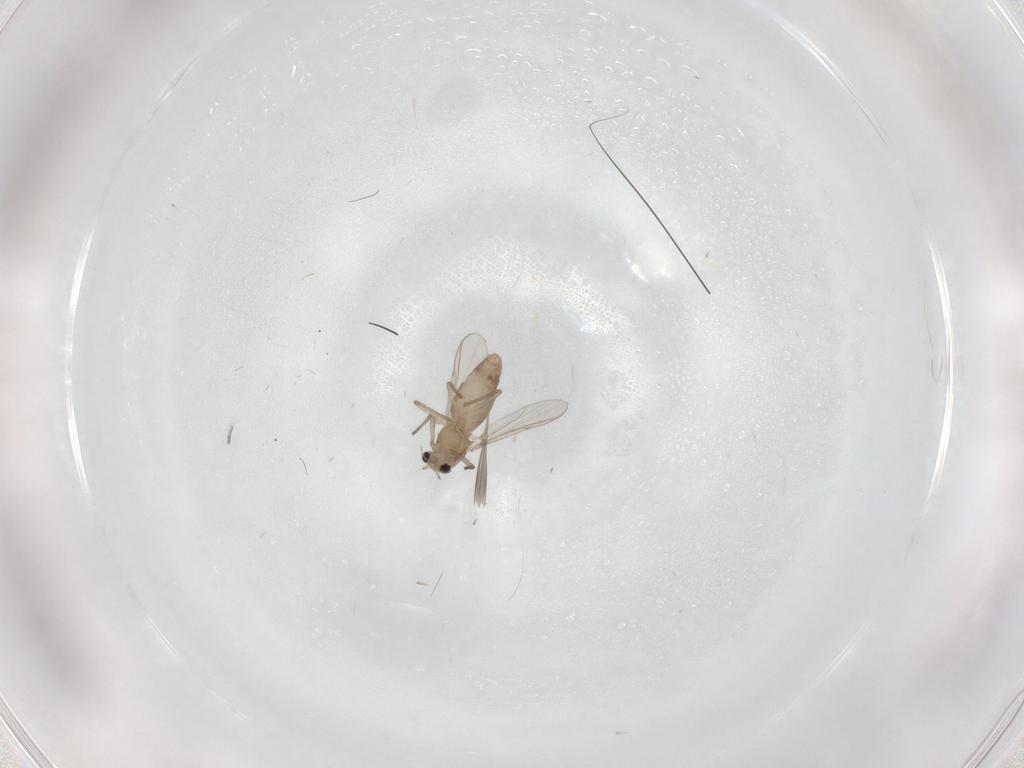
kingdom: Animalia
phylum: Arthropoda
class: Insecta
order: Diptera
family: Chironomidae
